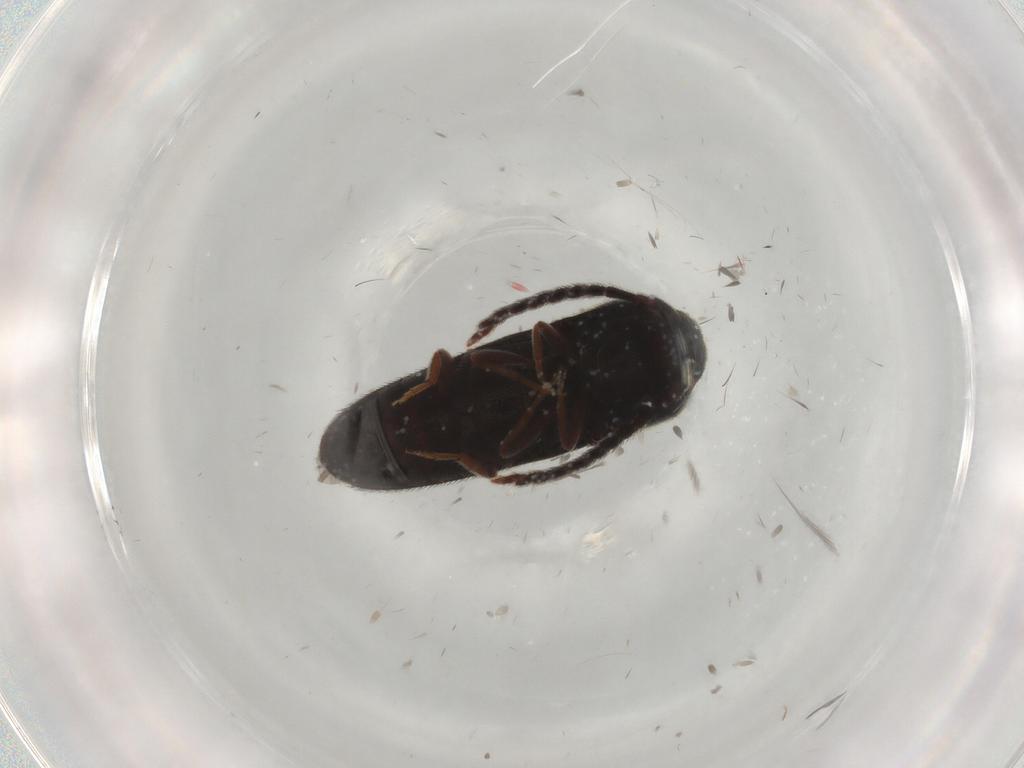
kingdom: Animalia
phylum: Arthropoda
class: Insecta
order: Coleoptera
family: Eucnemidae
